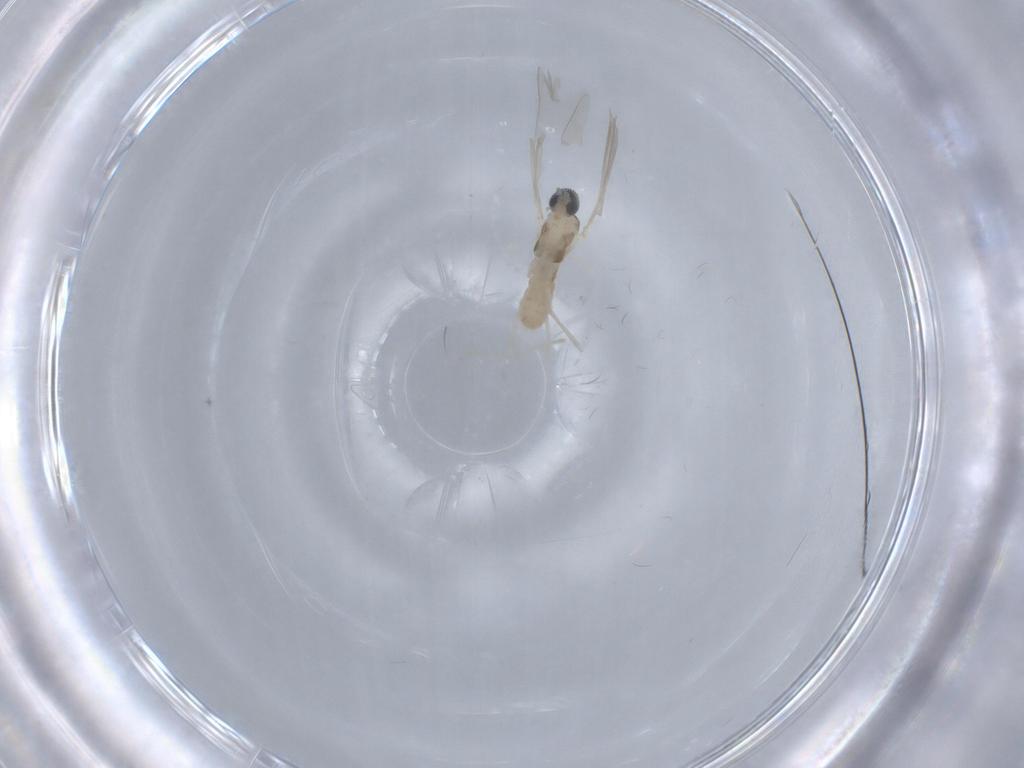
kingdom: Animalia
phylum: Arthropoda
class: Insecta
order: Diptera
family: Cecidomyiidae
